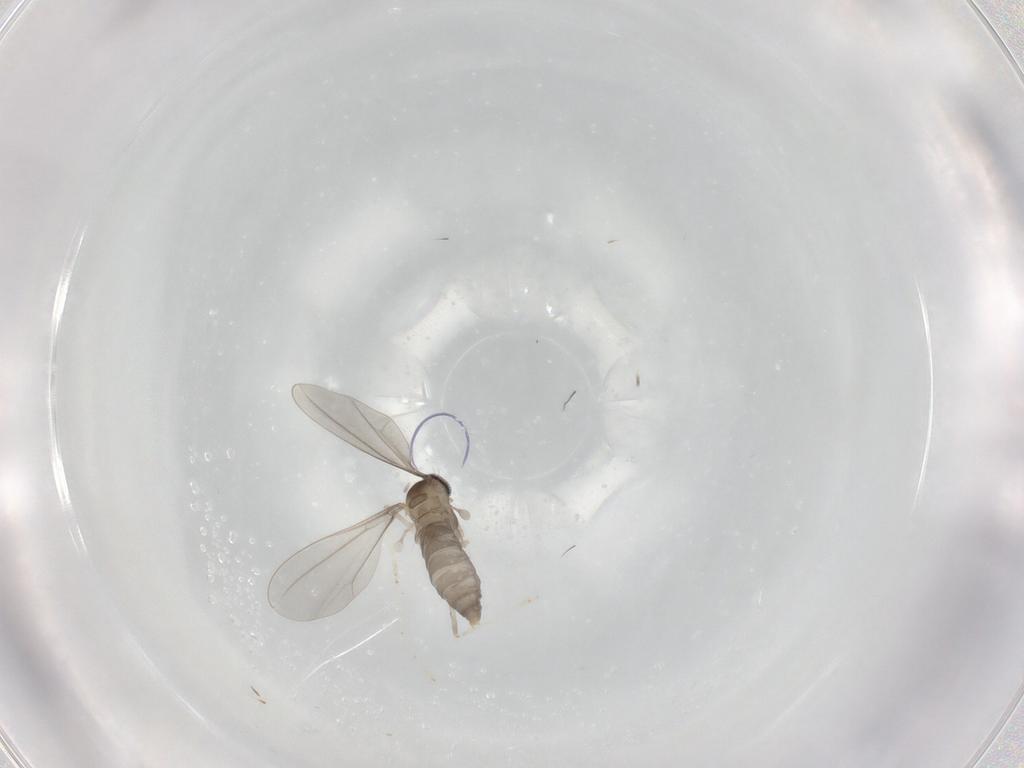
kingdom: Animalia
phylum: Arthropoda
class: Insecta
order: Diptera
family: Cecidomyiidae
